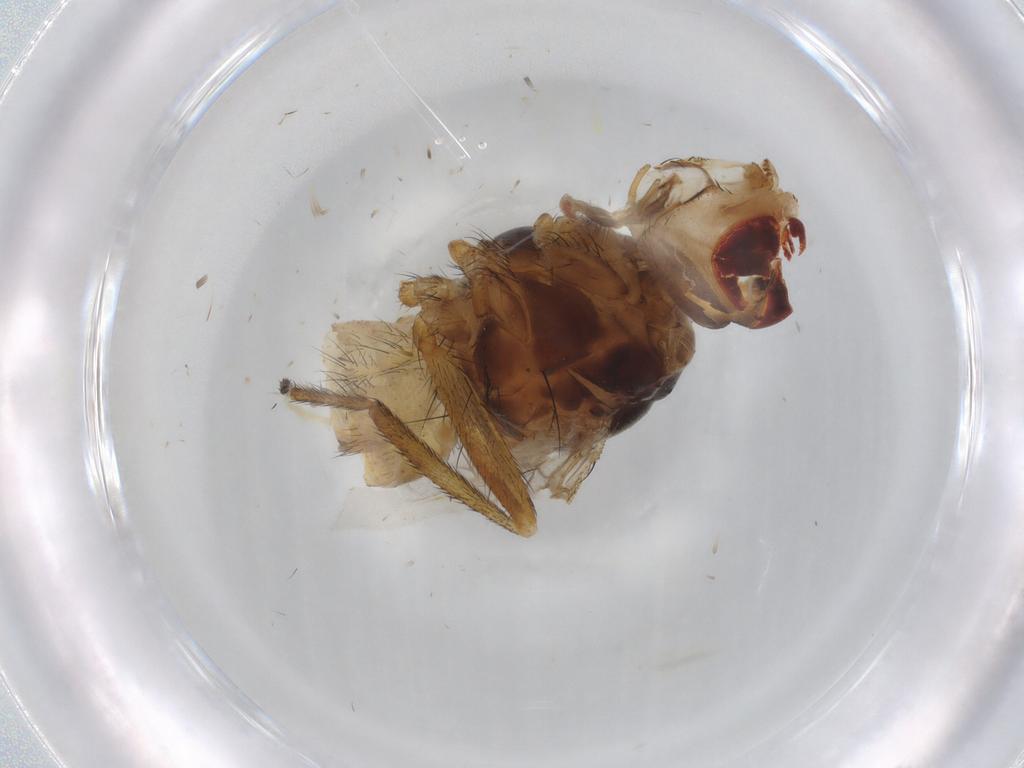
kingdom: Animalia
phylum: Arthropoda
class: Insecta
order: Diptera
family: Tachinidae
